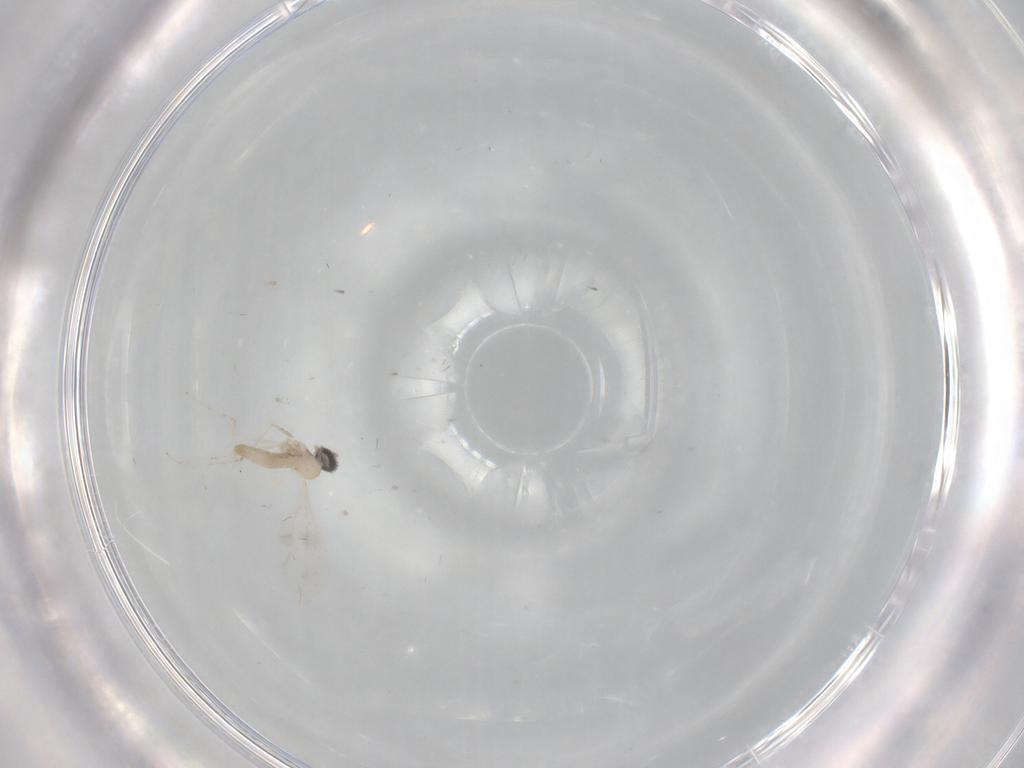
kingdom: Animalia
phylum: Arthropoda
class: Insecta
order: Diptera
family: Cecidomyiidae
